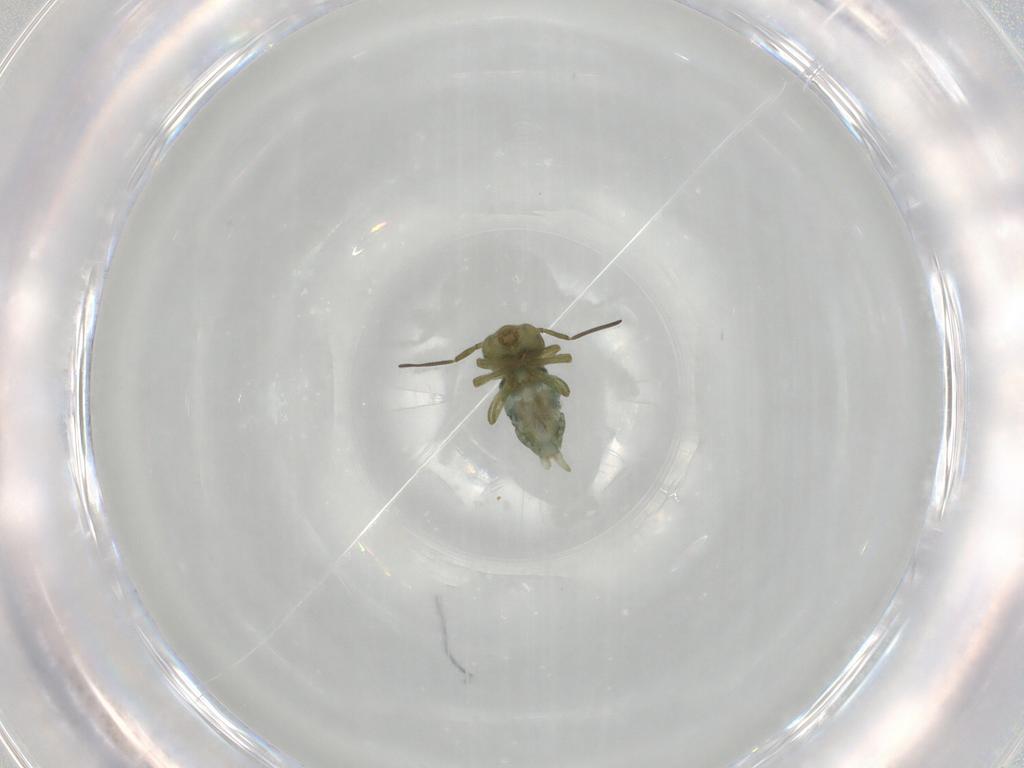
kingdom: Animalia
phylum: Arthropoda
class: Collembola
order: Symphypleona
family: Sminthuridae
